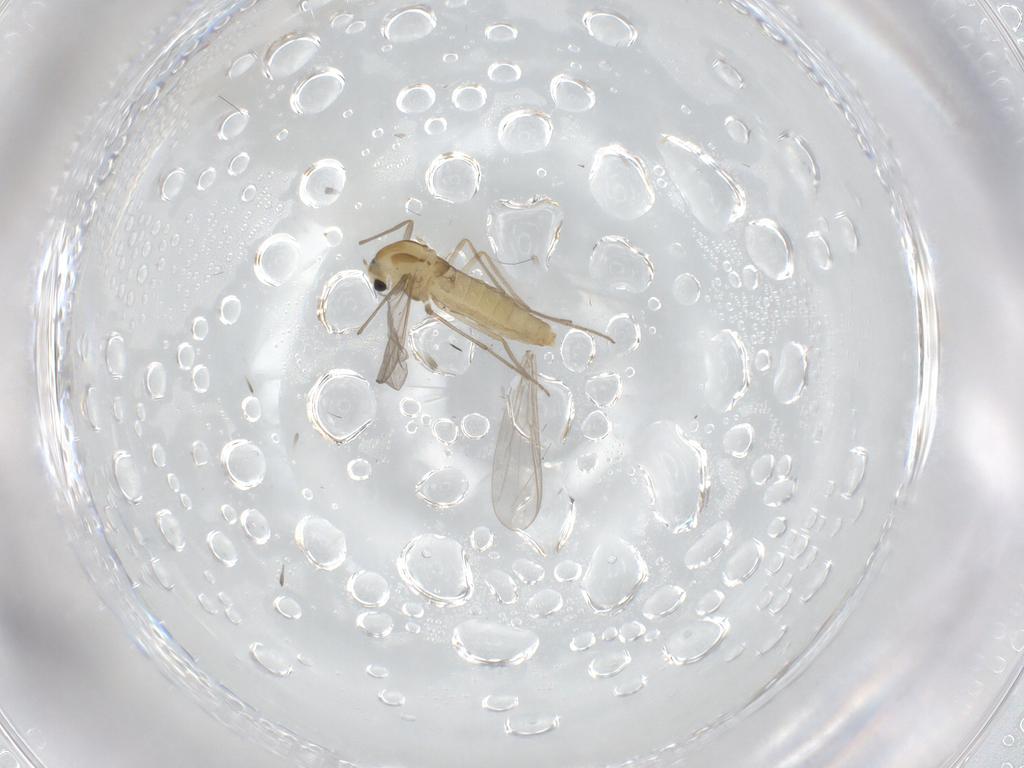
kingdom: Animalia
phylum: Arthropoda
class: Insecta
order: Diptera
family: Chironomidae
